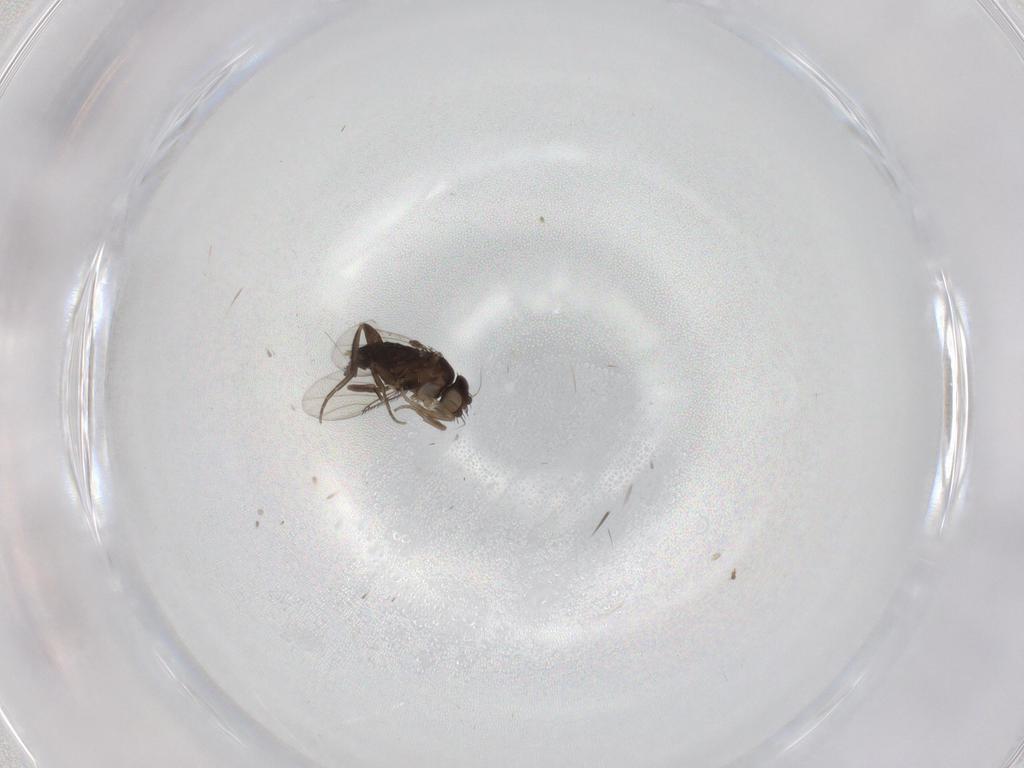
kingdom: Animalia
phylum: Arthropoda
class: Insecta
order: Diptera
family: Phoridae
